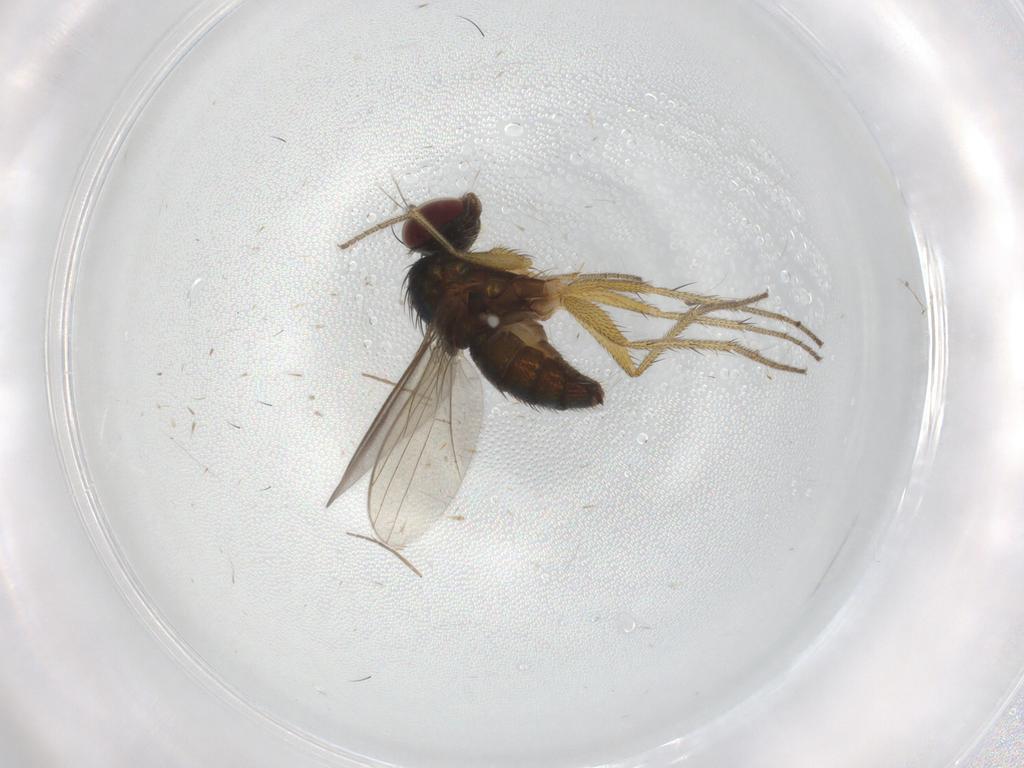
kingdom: Animalia
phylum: Arthropoda
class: Insecta
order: Diptera
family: Dolichopodidae
